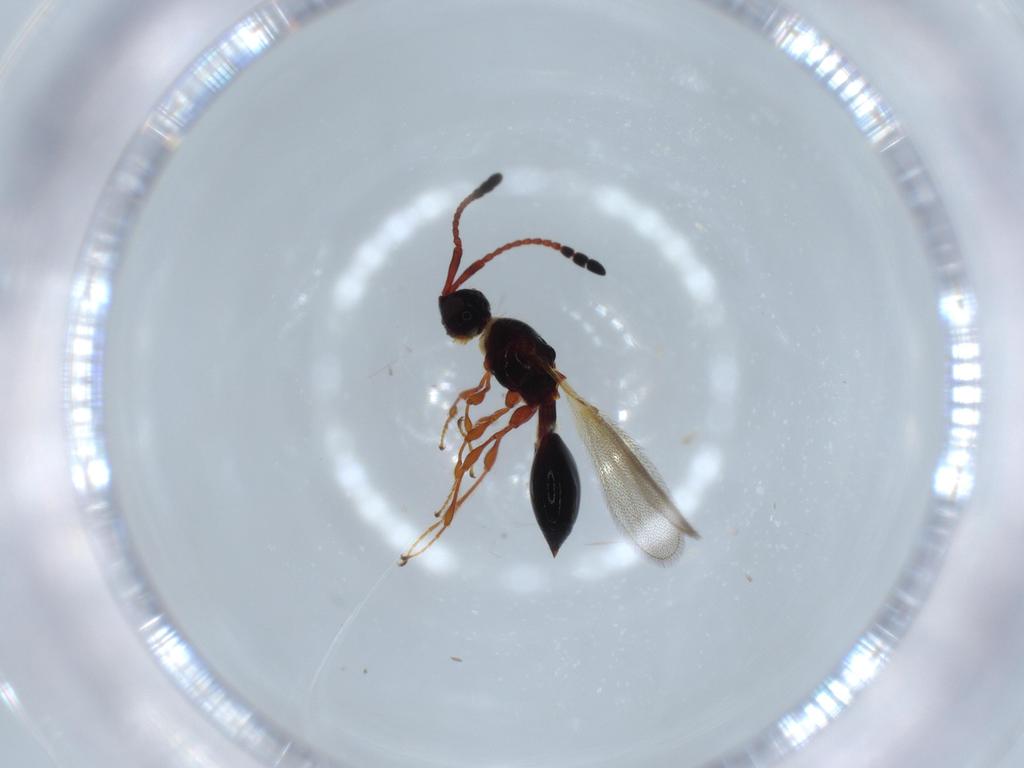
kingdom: Animalia
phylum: Arthropoda
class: Insecta
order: Hymenoptera
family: Diapriidae
